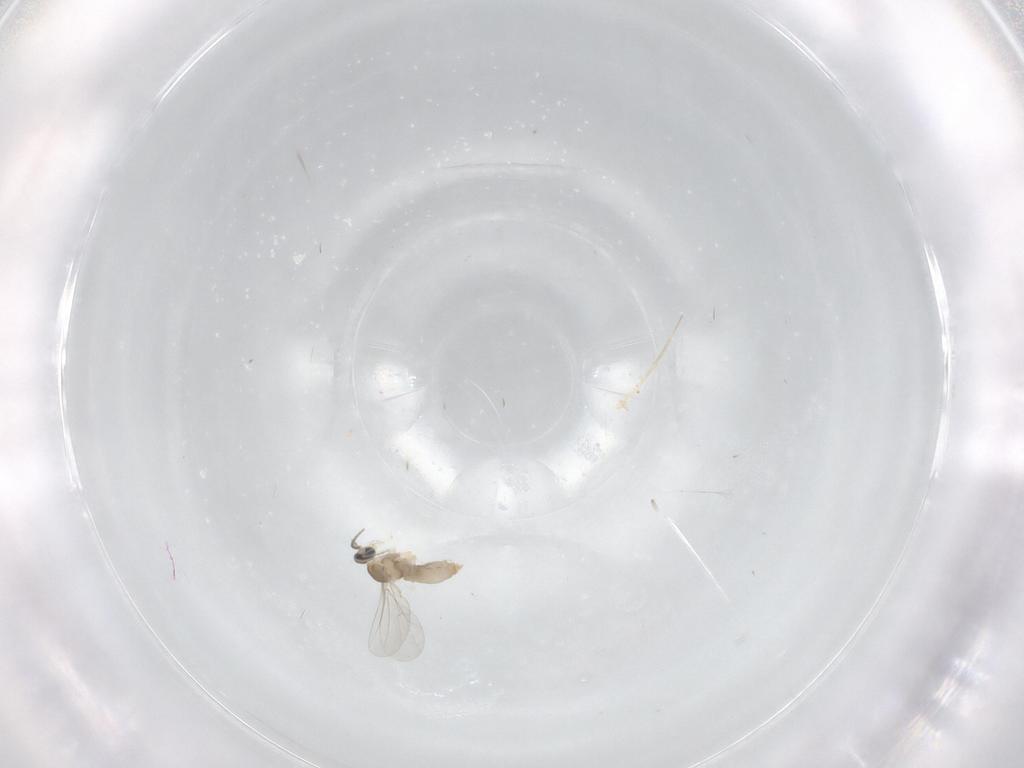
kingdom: Animalia
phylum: Arthropoda
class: Insecta
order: Diptera
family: Cecidomyiidae
